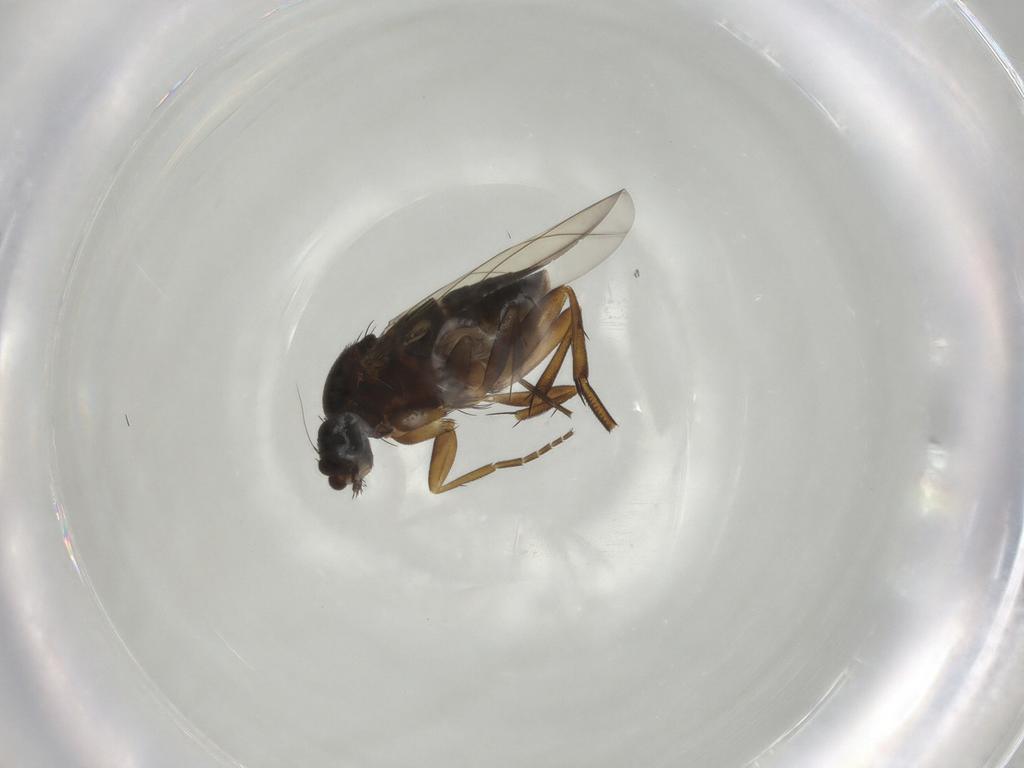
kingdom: Animalia
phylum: Arthropoda
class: Insecta
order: Diptera
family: Phoridae
